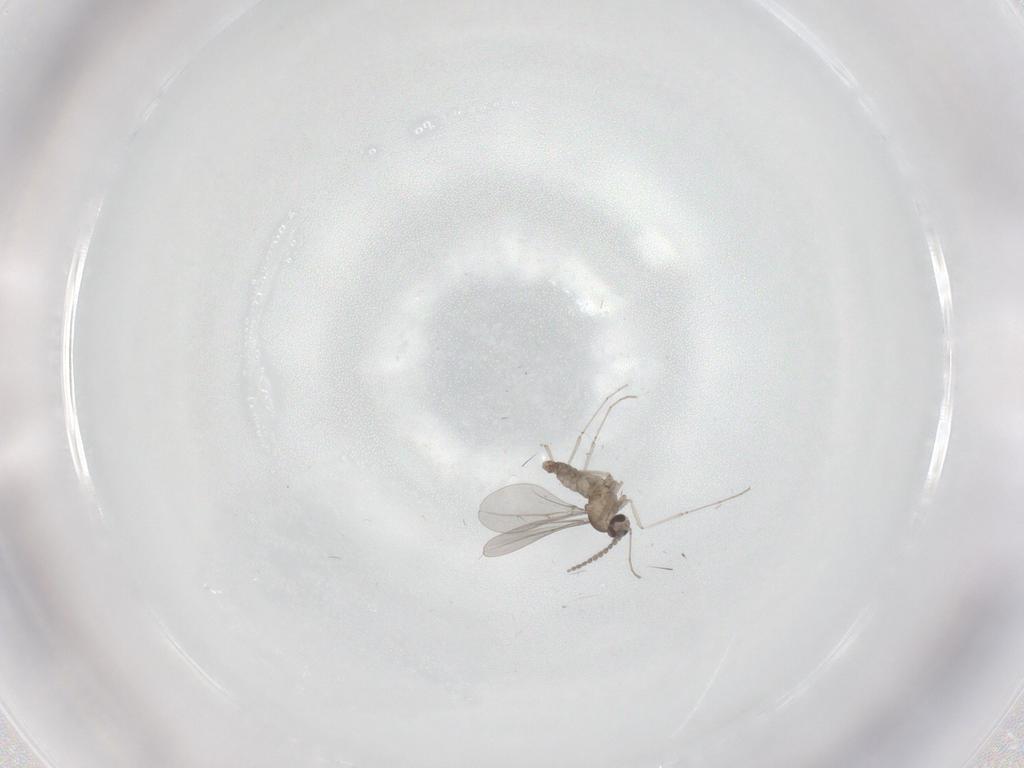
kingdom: Animalia
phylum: Arthropoda
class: Insecta
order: Diptera
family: Cecidomyiidae
